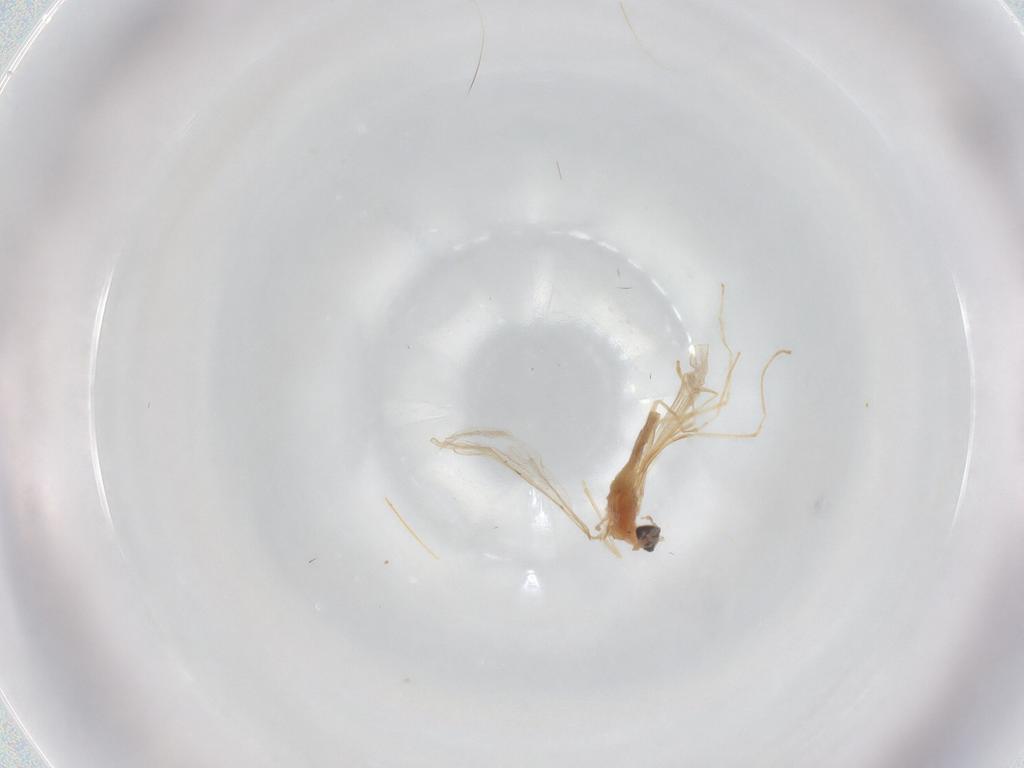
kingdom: Animalia
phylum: Arthropoda
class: Insecta
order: Diptera
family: Cecidomyiidae
